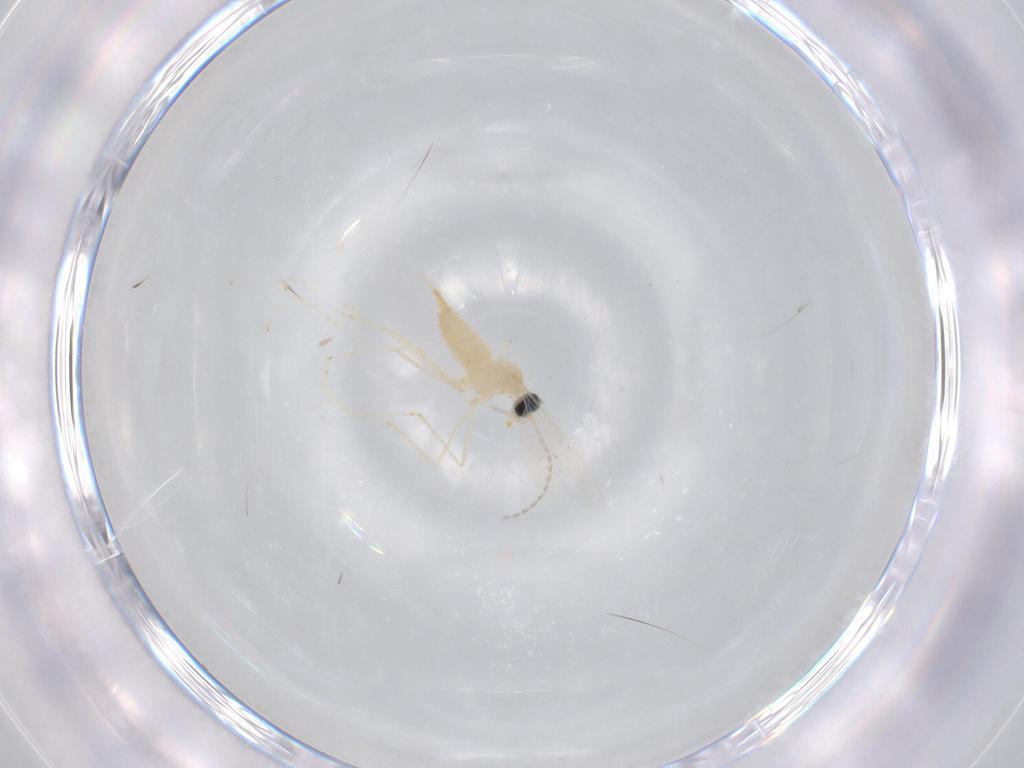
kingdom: Animalia
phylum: Arthropoda
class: Insecta
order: Diptera
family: Cecidomyiidae
